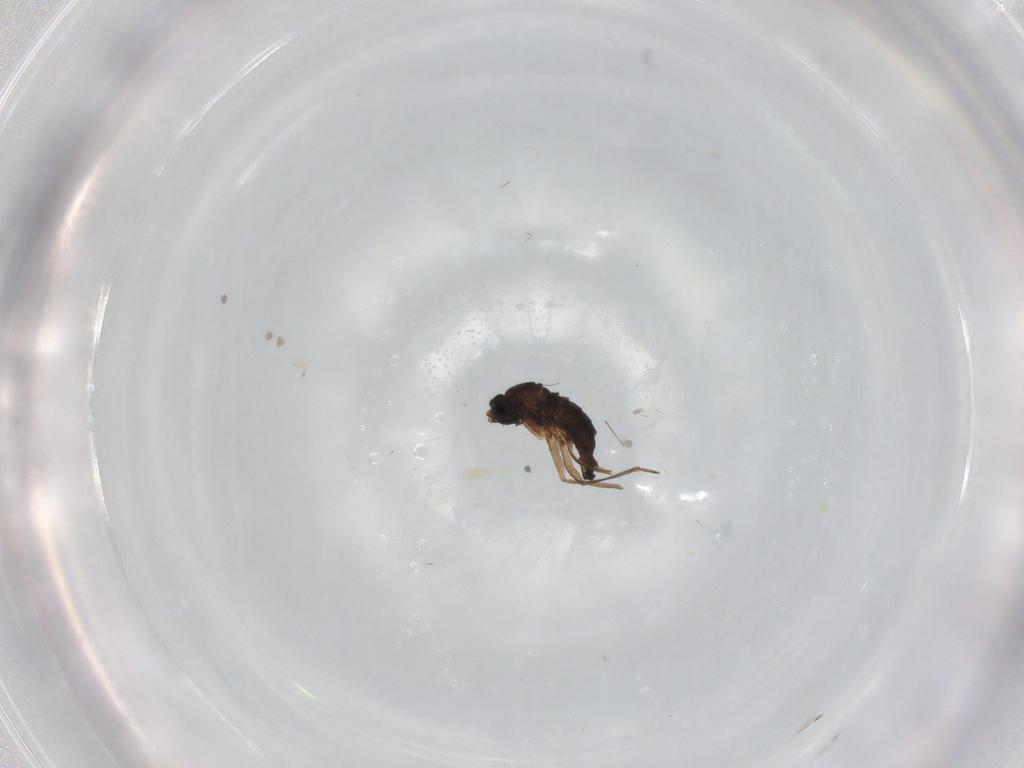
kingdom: Animalia
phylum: Arthropoda
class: Insecta
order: Diptera
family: Sciaridae
